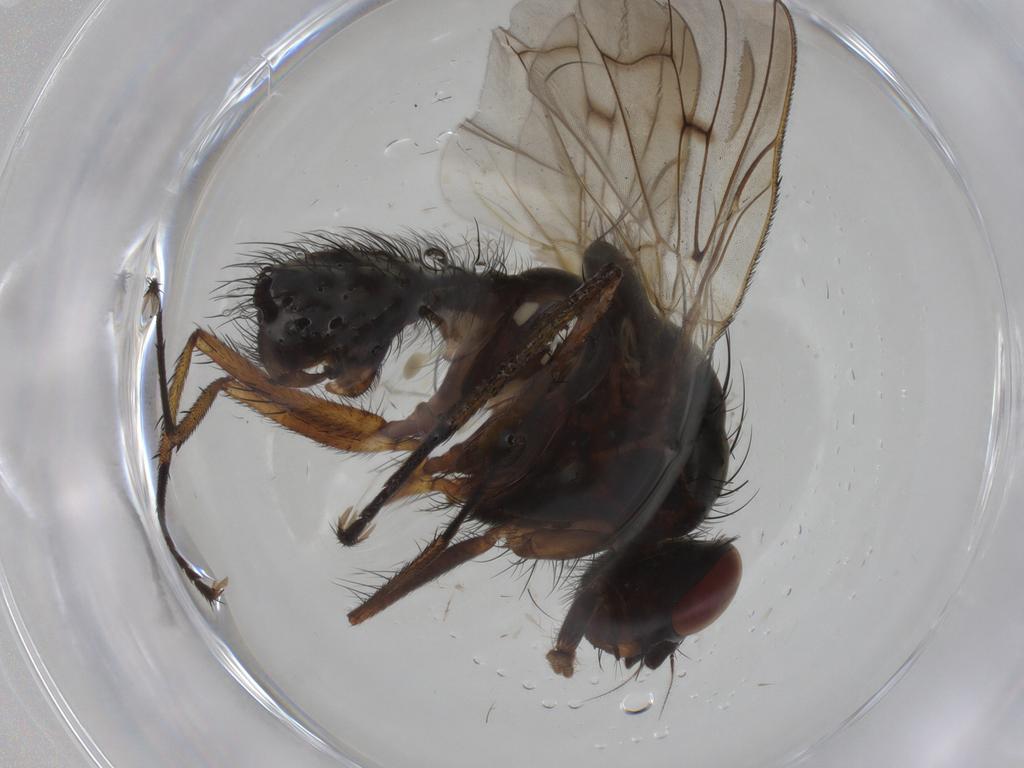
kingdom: Animalia
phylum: Arthropoda
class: Insecta
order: Diptera
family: Anthomyiidae
